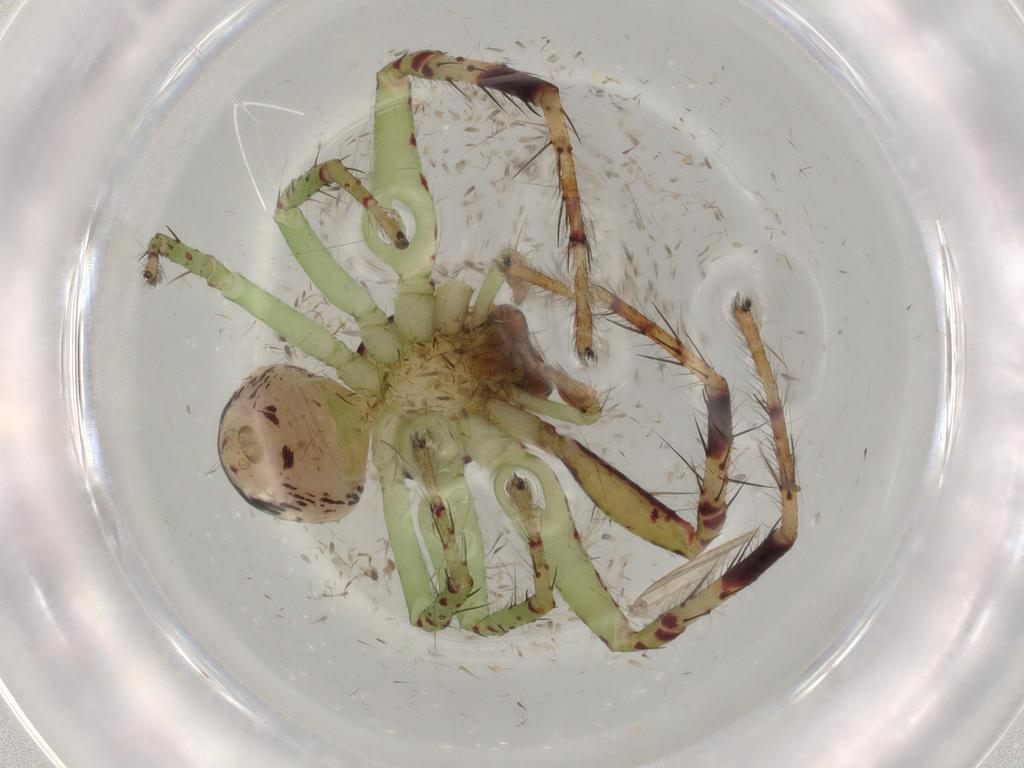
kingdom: Animalia
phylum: Arthropoda
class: Arachnida
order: Araneae
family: Thomisidae
